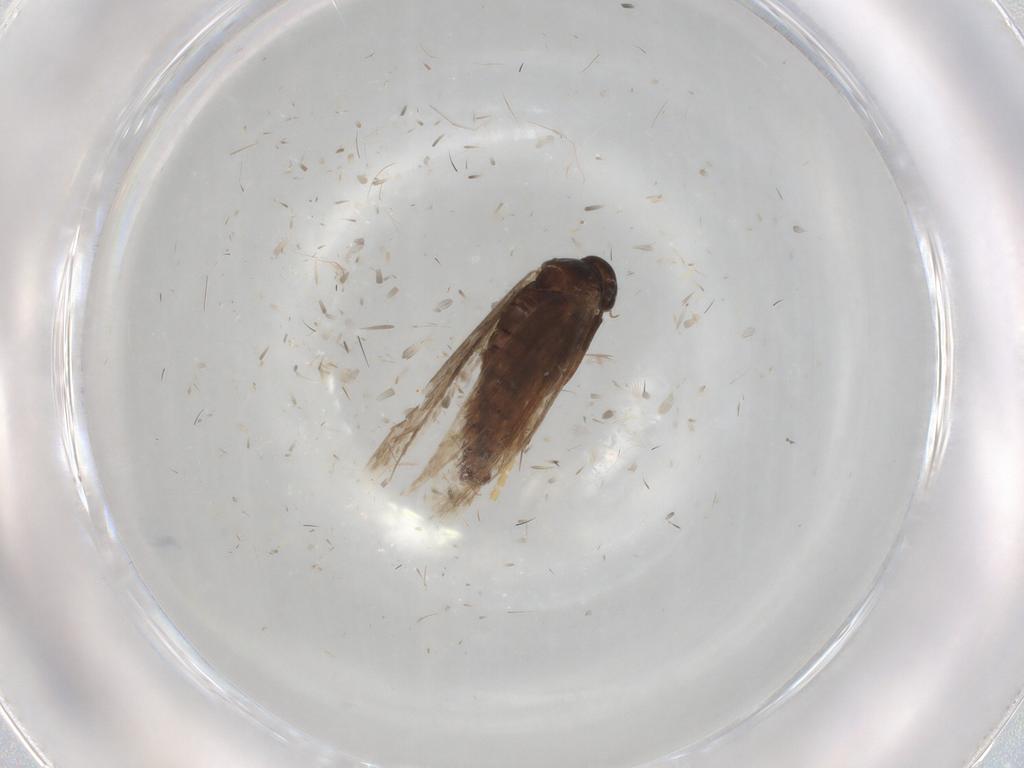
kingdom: Animalia
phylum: Arthropoda
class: Insecta
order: Lepidoptera
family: Scythrididae
